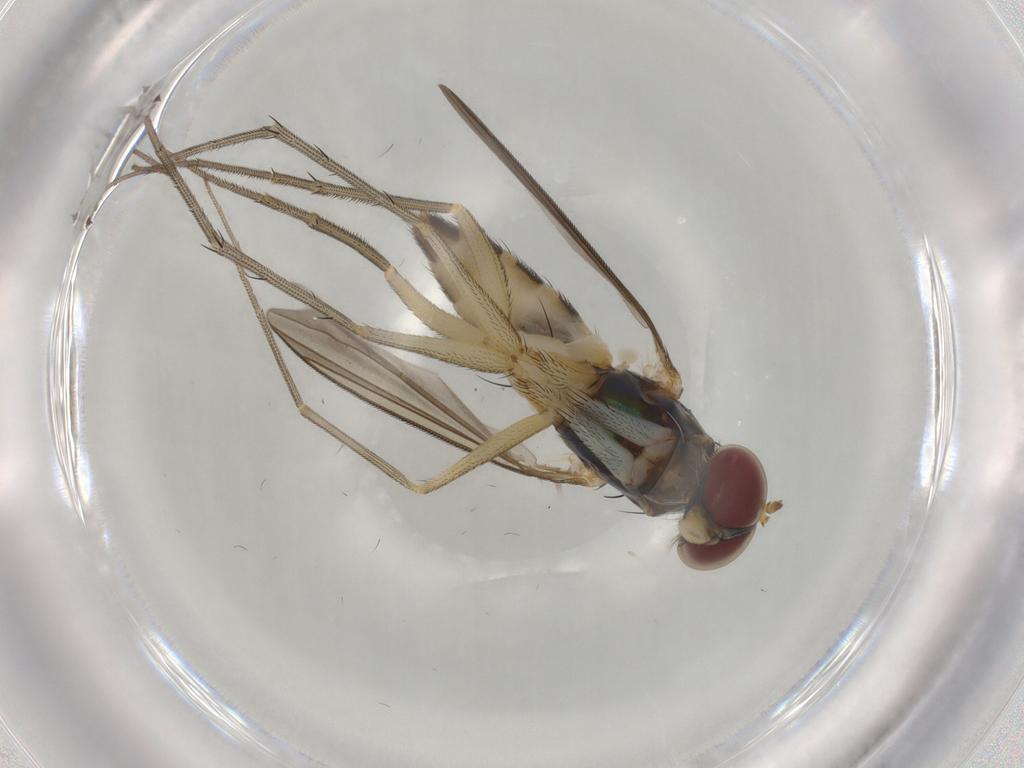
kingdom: Animalia
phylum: Arthropoda
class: Insecta
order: Diptera
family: Dolichopodidae
